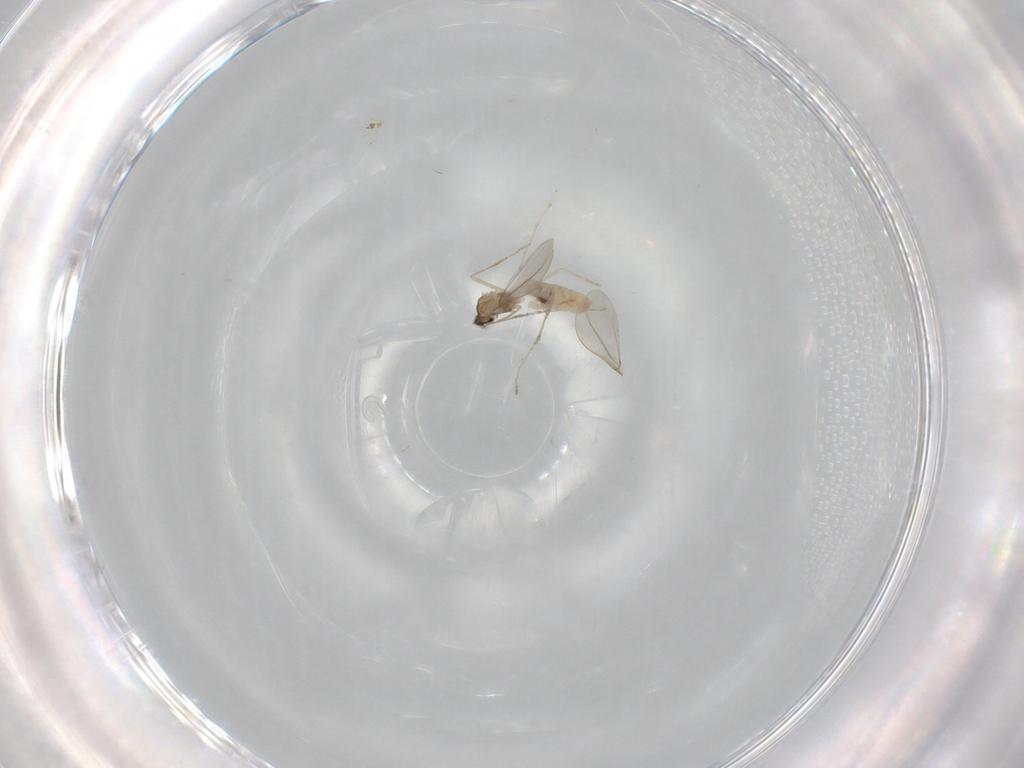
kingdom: Animalia
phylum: Arthropoda
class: Insecta
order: Diptera
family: Cecidomyiidae
